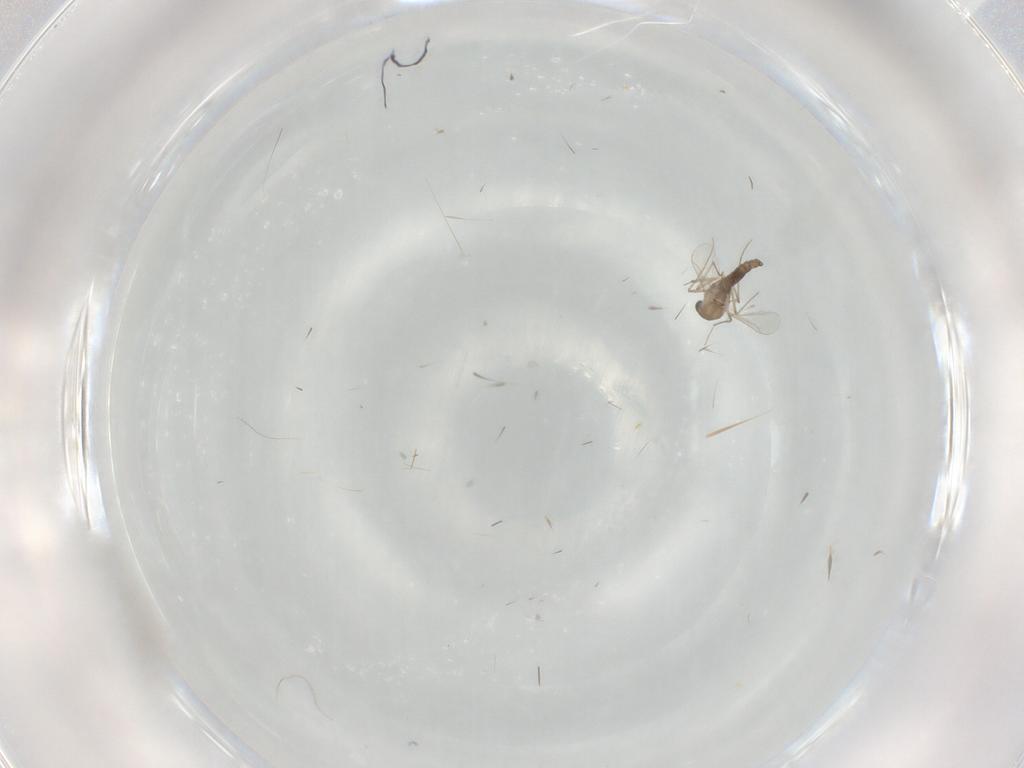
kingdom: Animalia
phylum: Arthropoda
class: Insecta
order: Diptera
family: Chironomidae
